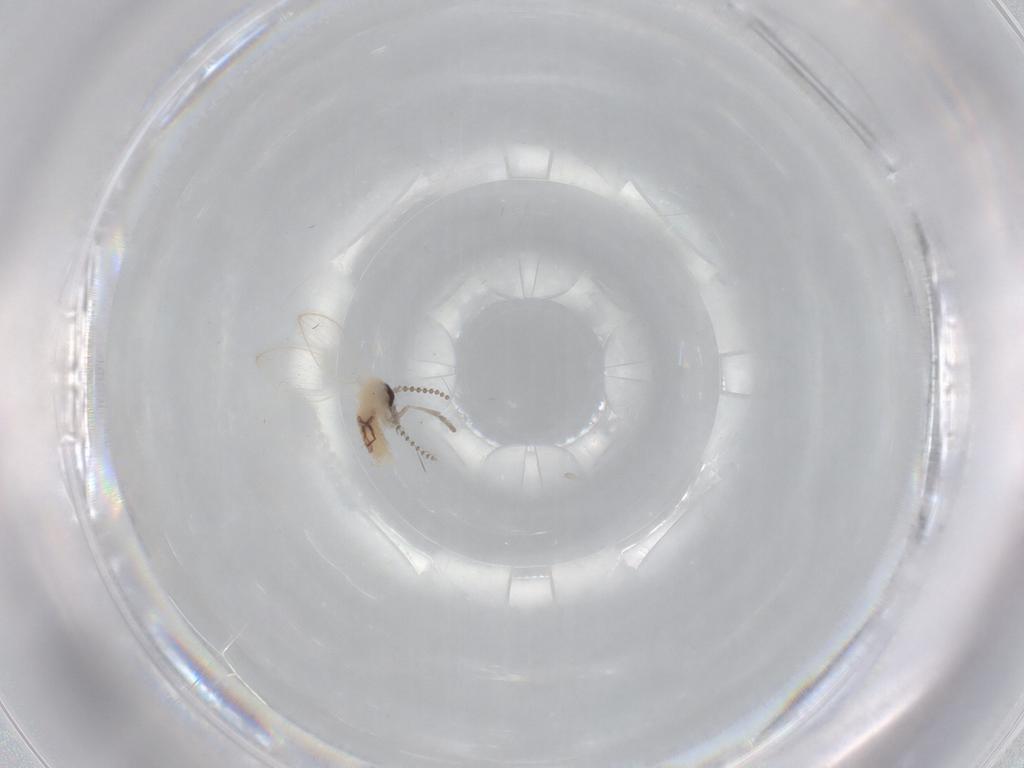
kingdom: Animalia
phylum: Arthropoda
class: Insecta
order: Diptera
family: Psychodidae
